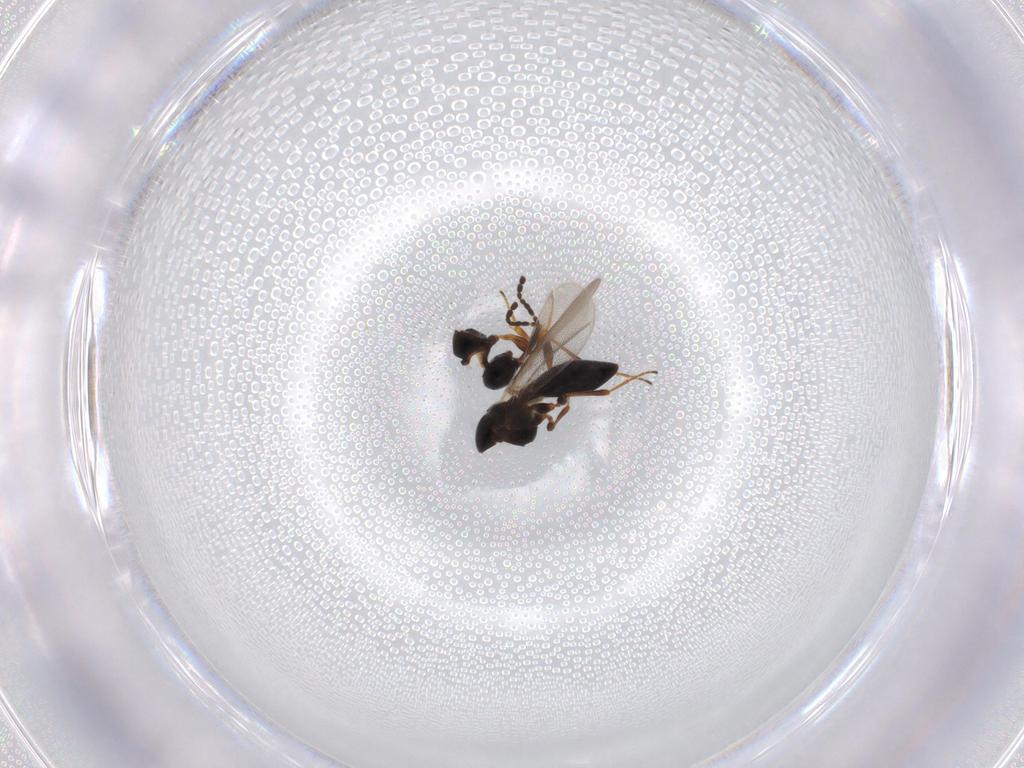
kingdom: Animalia
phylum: Arthropoda
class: Insecta
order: Hymenoptera
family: Platygastridae
